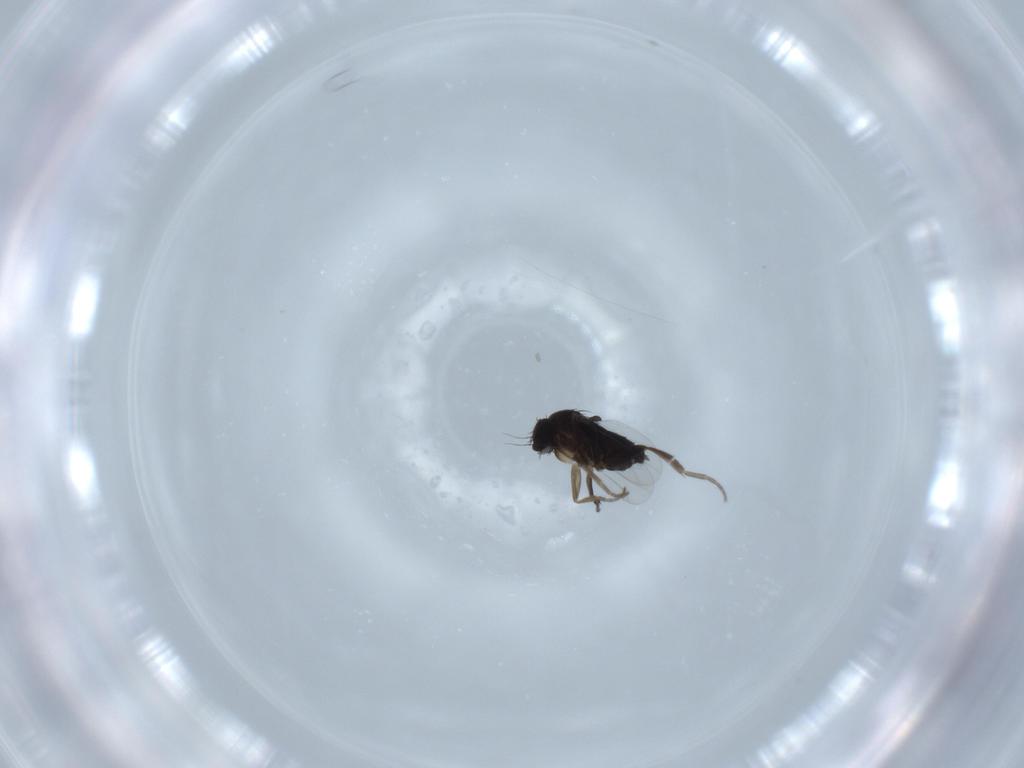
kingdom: Animalia
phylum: Arthropoda
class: Insecta
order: Diptera
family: Phoridae
